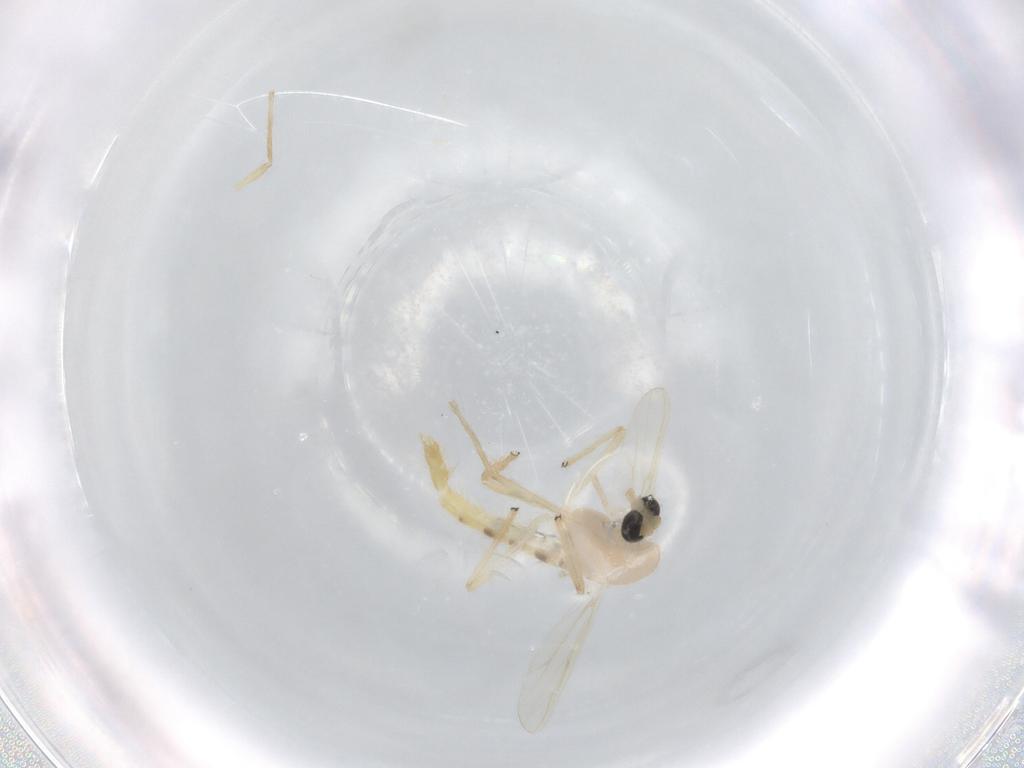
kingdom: Animalia
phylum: Arthropoda
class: Insecta
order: Diptera
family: Chironomidae
